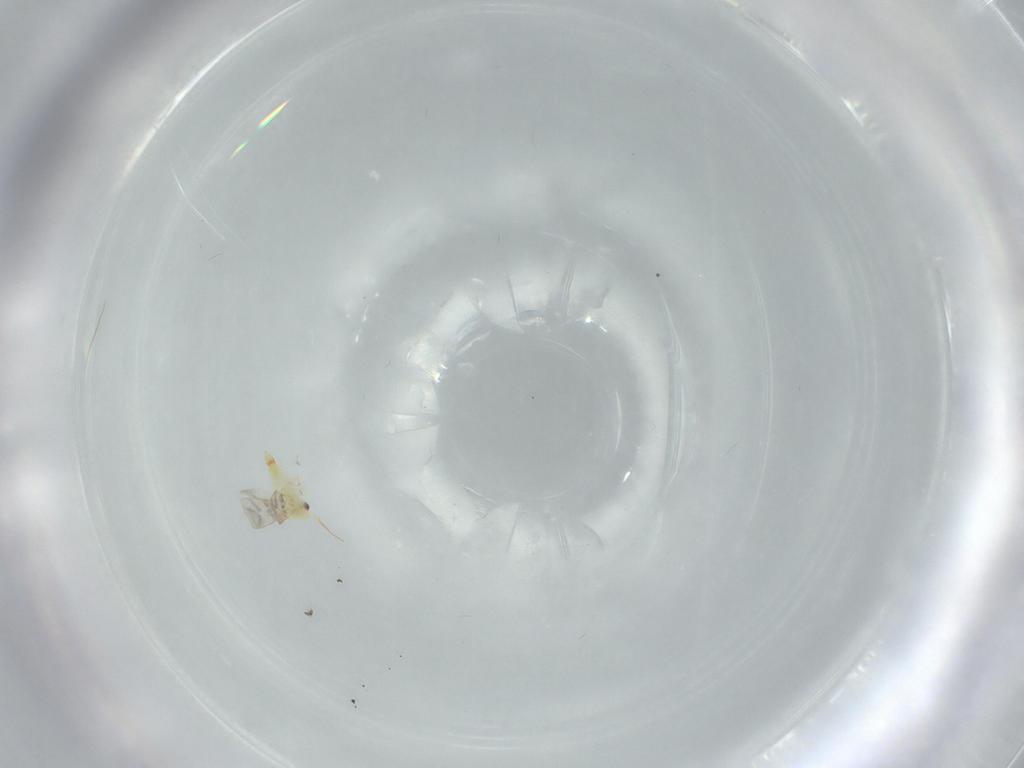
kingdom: Animalia
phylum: Arthropoda
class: Insecta
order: Hemiptera
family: Aleyrodidae
